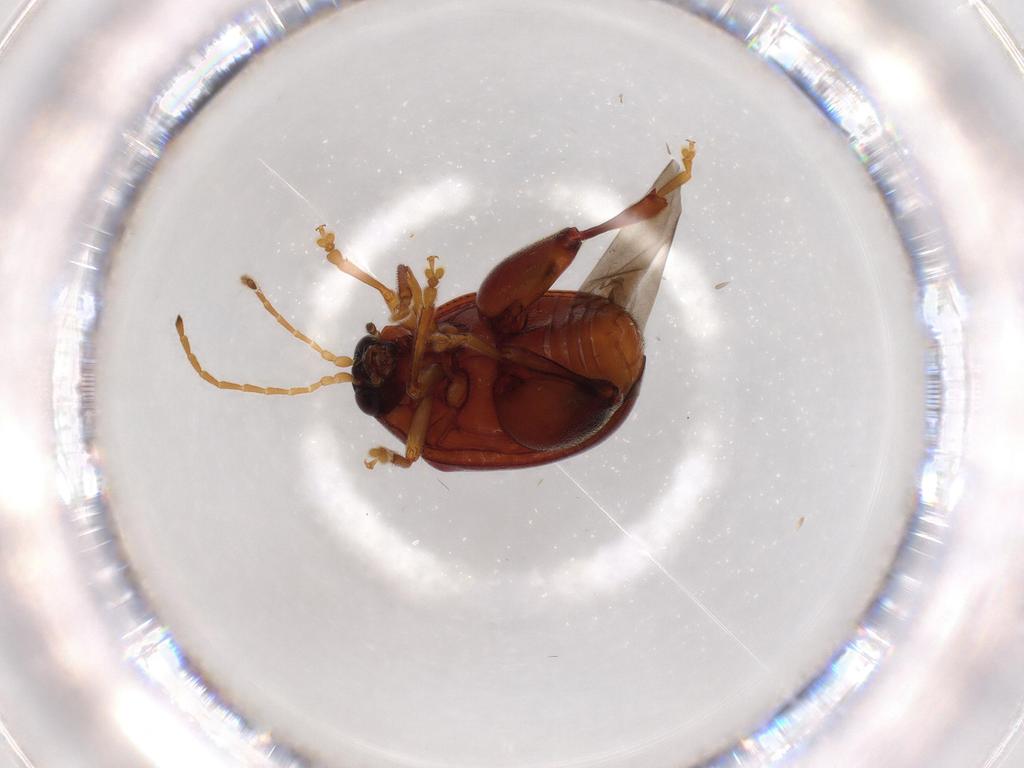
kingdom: Animalia
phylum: Arthropoda
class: Insecta
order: Coleoptera
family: Chrysomelidae
